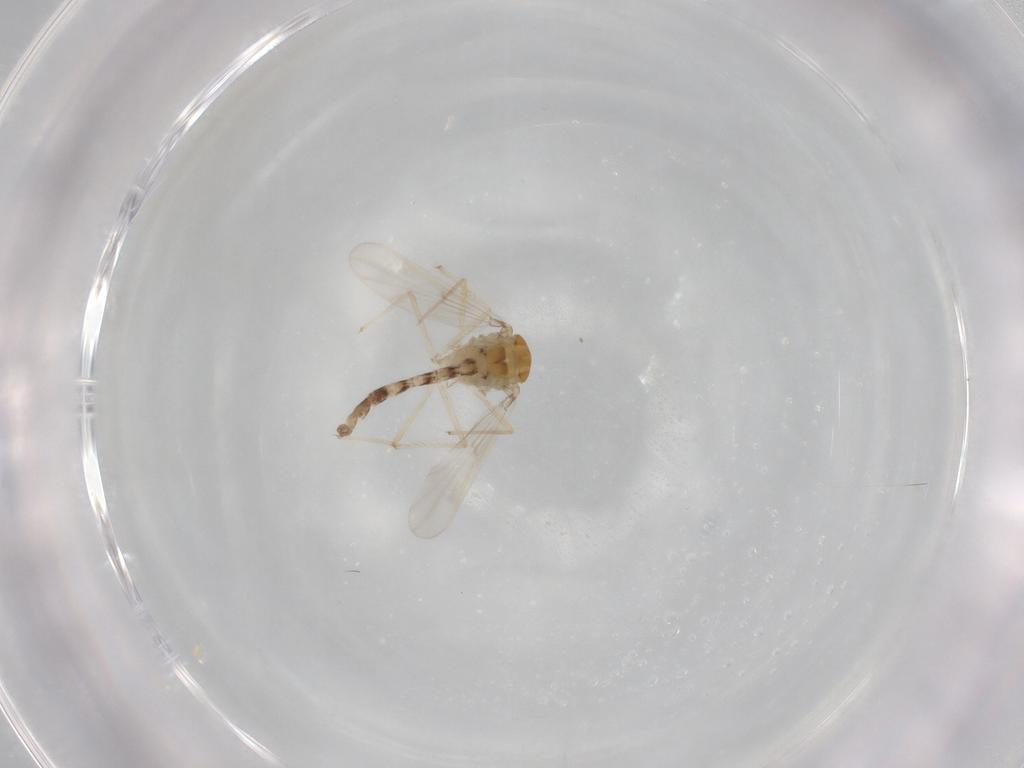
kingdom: Animalia
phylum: Arthropoda
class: Insecta
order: Diptera
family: Chironomidae
